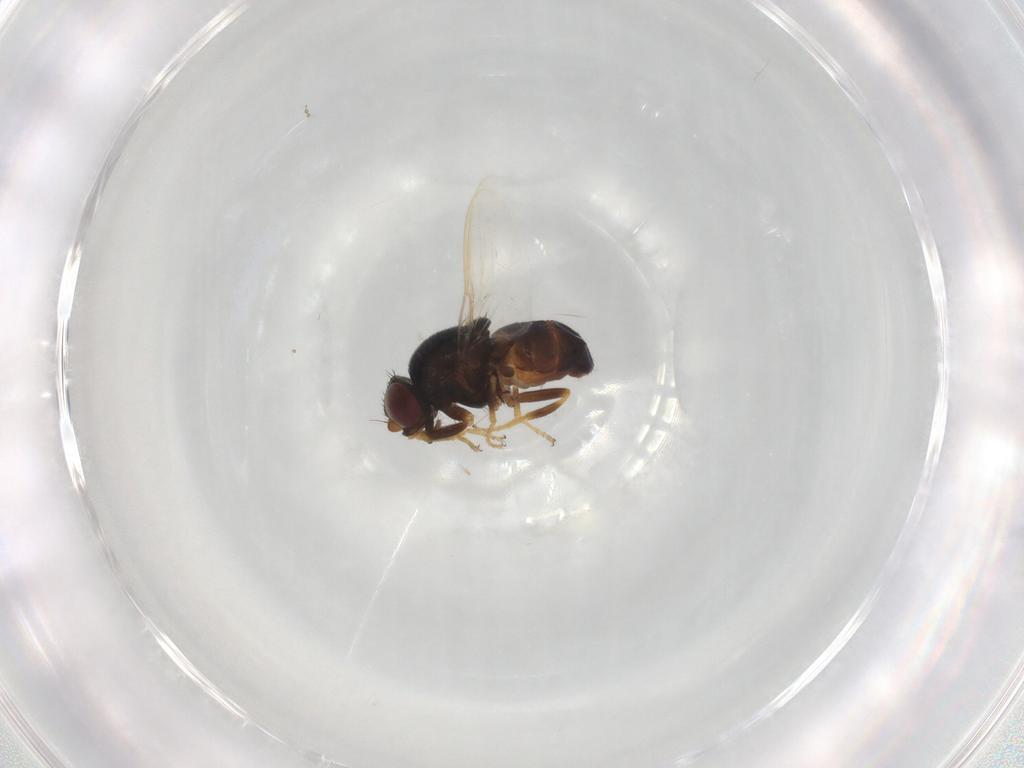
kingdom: Animalia
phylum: Arthropoda
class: Insecta
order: Diptera
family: Chloropidae
